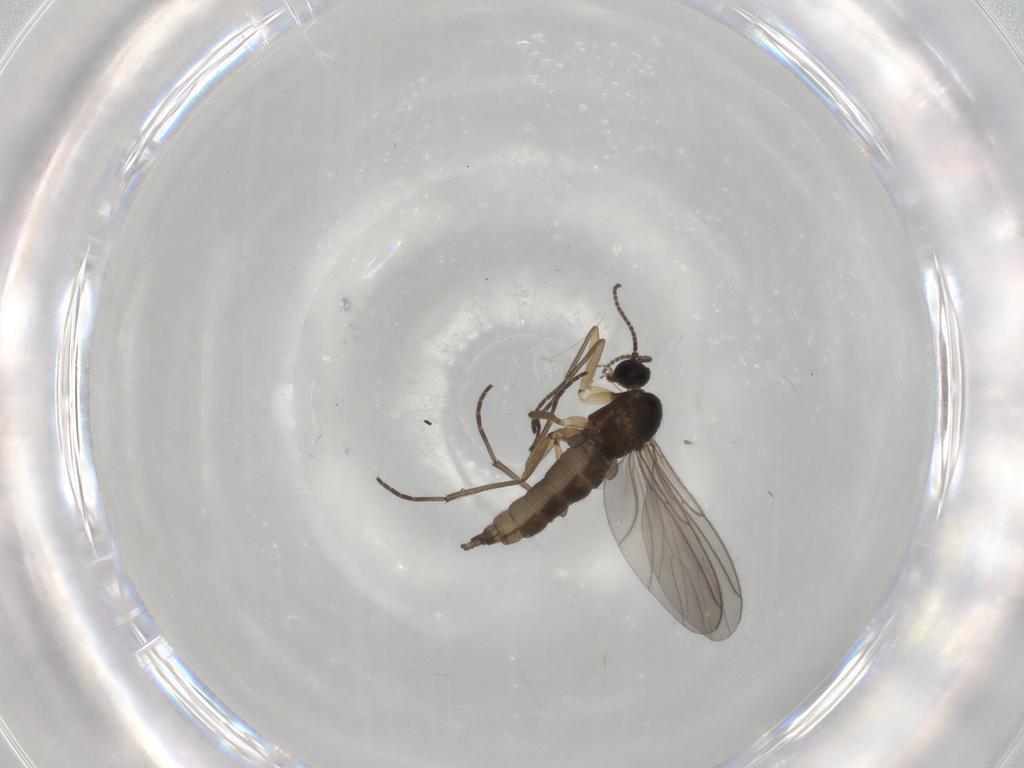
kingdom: Animalia
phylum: Arthropoda
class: Insecta
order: Diptera
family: Sciaridae
